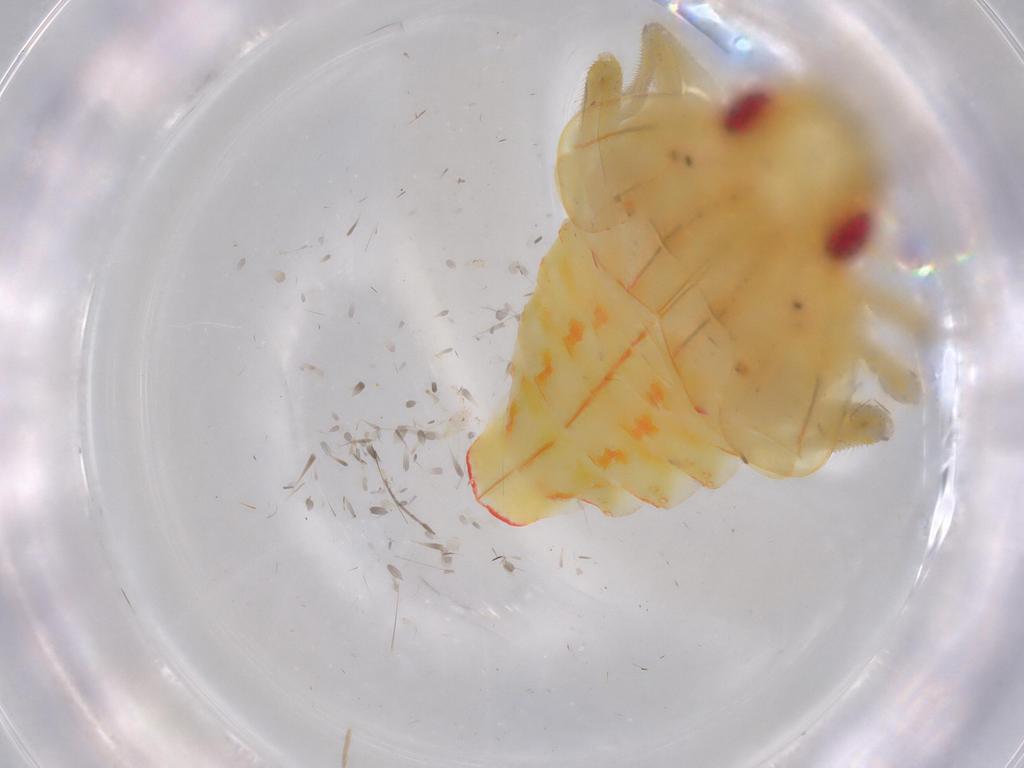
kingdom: Animalia
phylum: Arthropoda
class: Insecta
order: Hemiptera
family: Tropiduchidae
